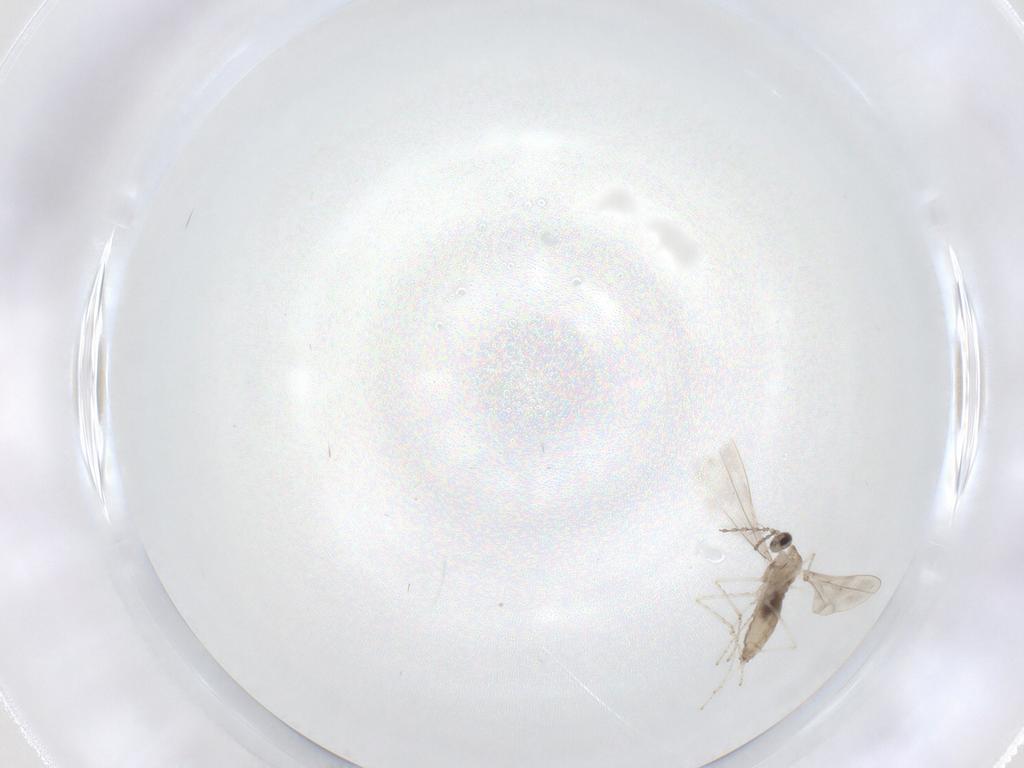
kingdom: Animalia
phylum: Arthropoda
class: Insecta
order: Diptera
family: Cecidomyiidae
